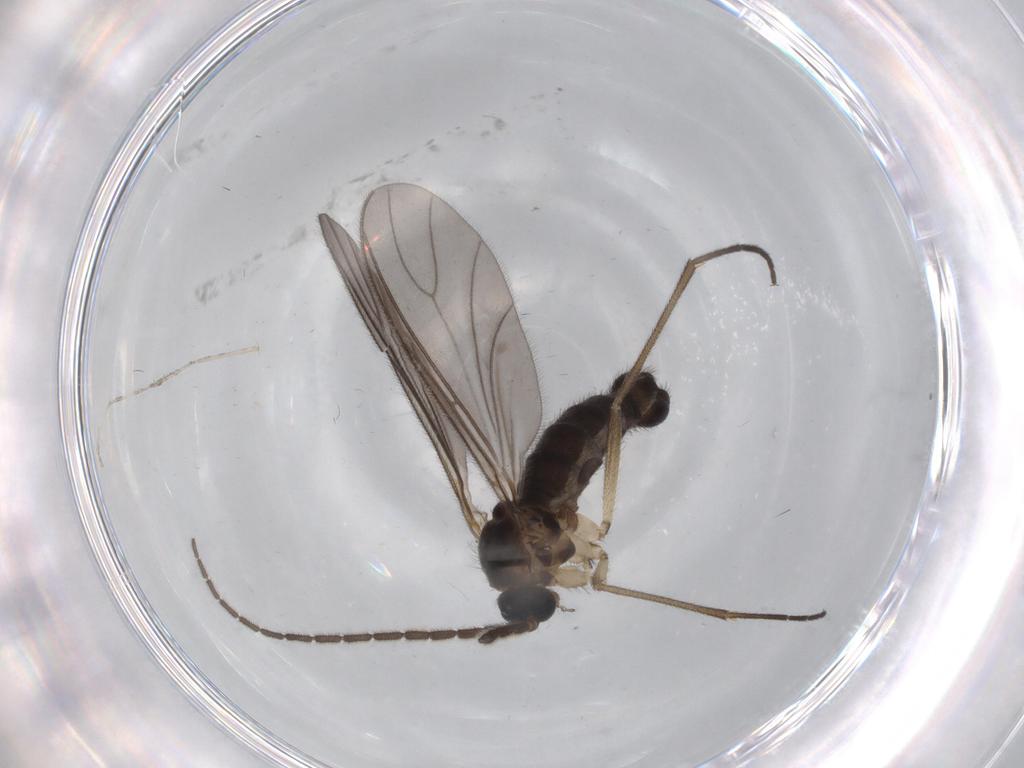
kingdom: Animalia
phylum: Arthropoda
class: Insecta
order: Diptera
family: Sciaridae
